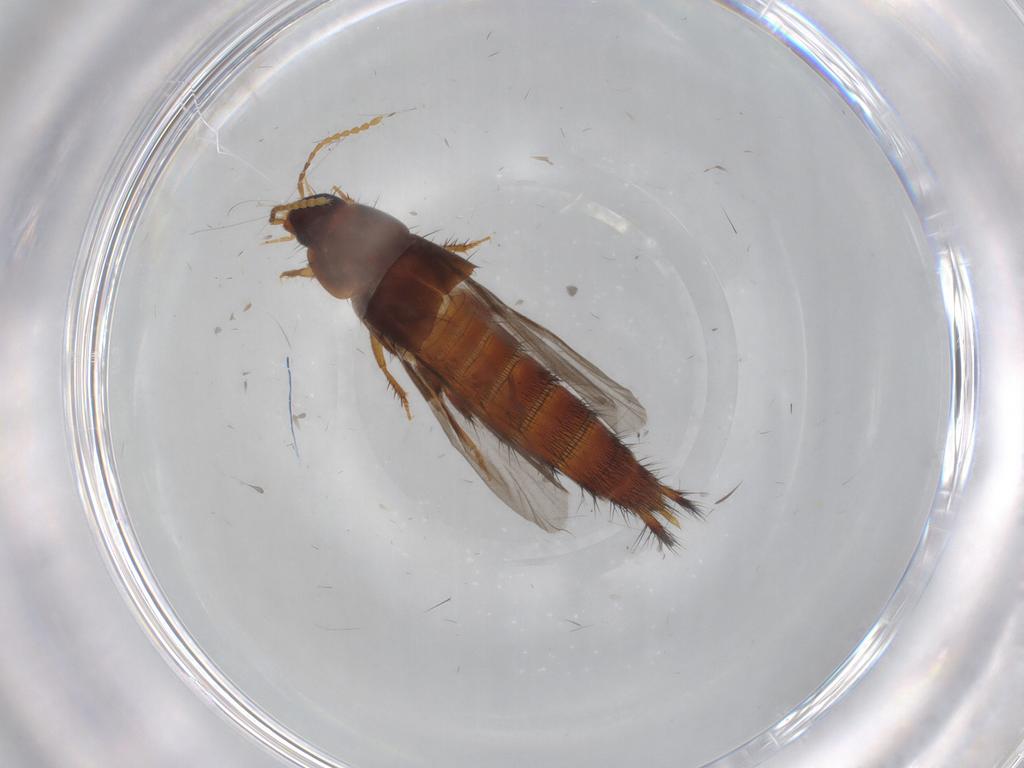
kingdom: Animalia
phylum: Arthropoda
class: Insecta
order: Coleoptera
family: Staphylinidae
